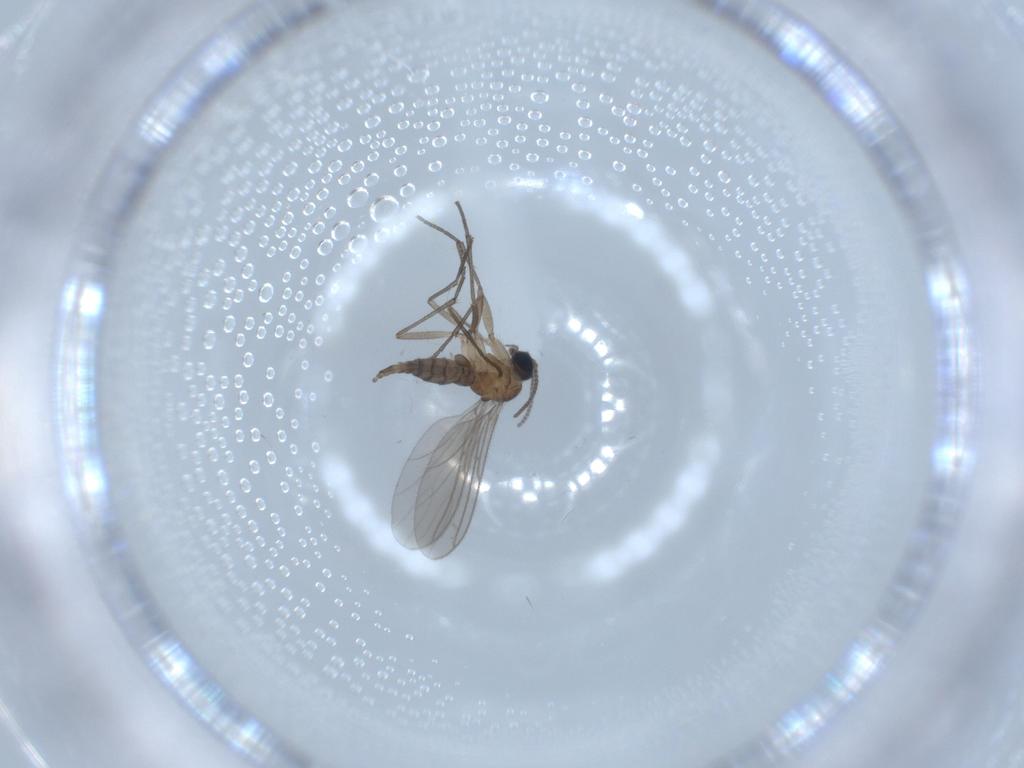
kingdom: Animalia
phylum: Arthropoda
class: Insecta
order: Diptera
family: Sciaridae
